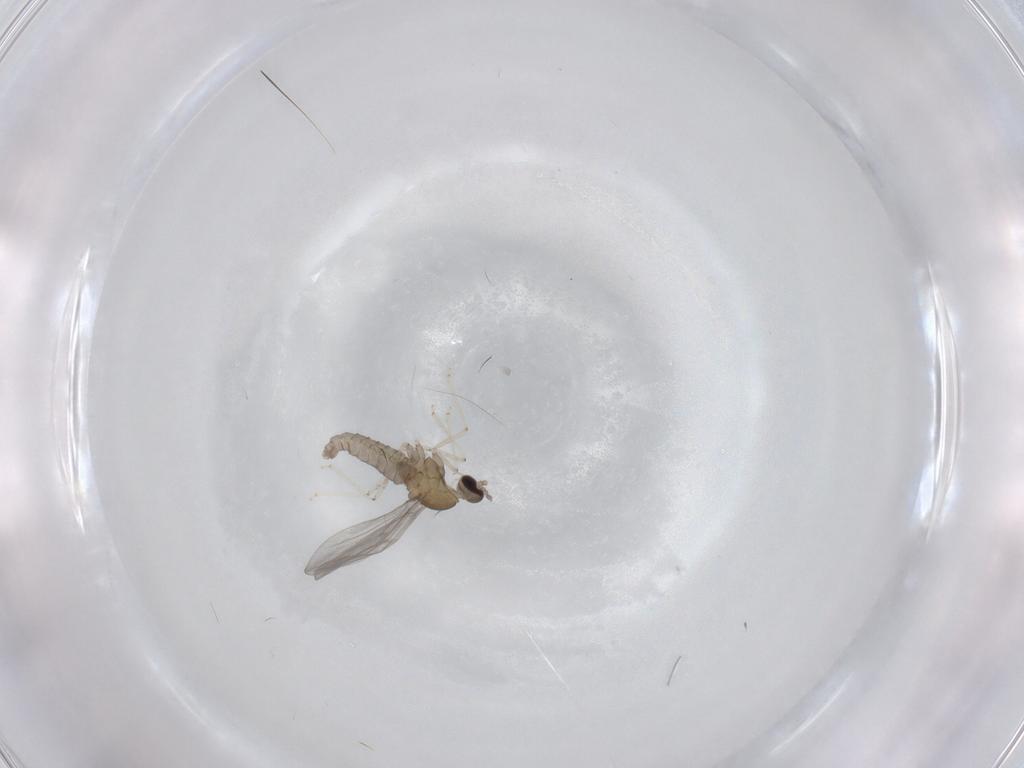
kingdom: Animalia
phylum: Arthropoda
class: Insecta
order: Diptera
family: Cecidomyiidae
